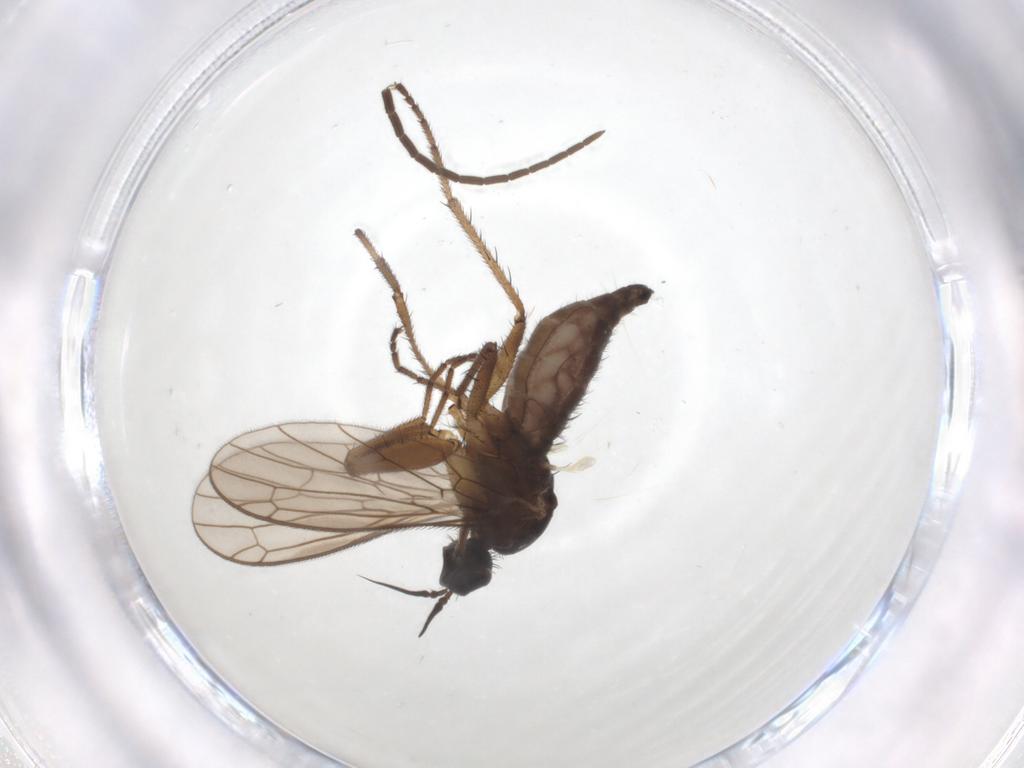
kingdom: Animalia
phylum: Arthropoda
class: Insecta
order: Diptera
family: Mycetophilidae
